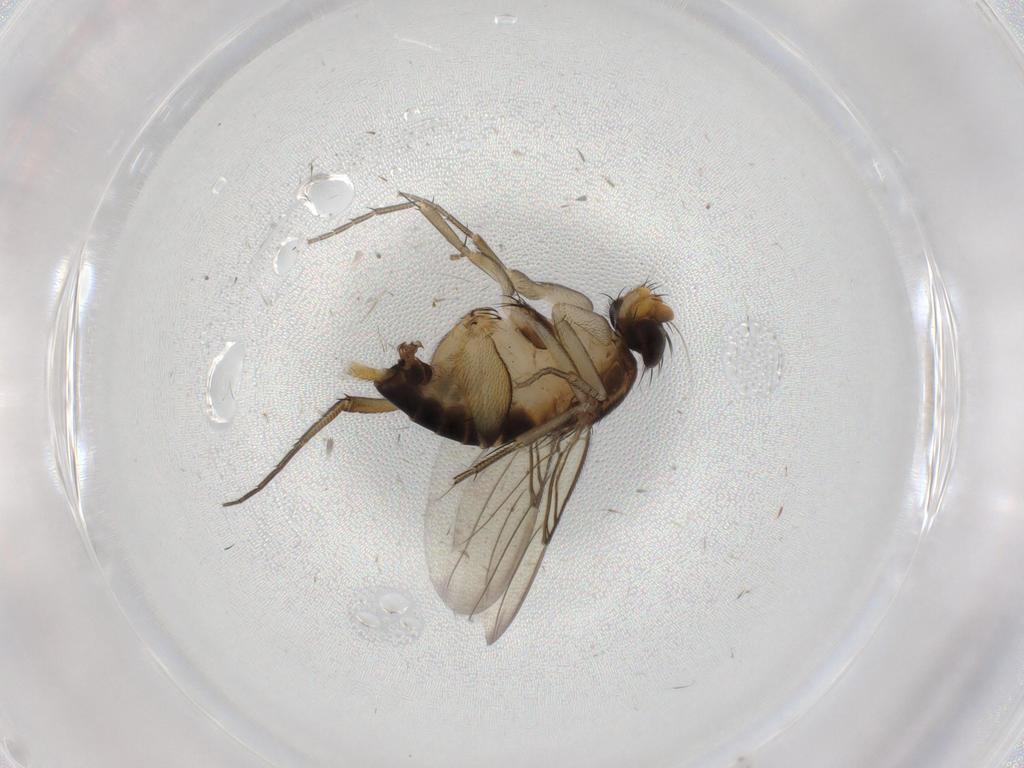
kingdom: Animalia
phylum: Arthropoda
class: Insecta
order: Diptera
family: Phoridae
